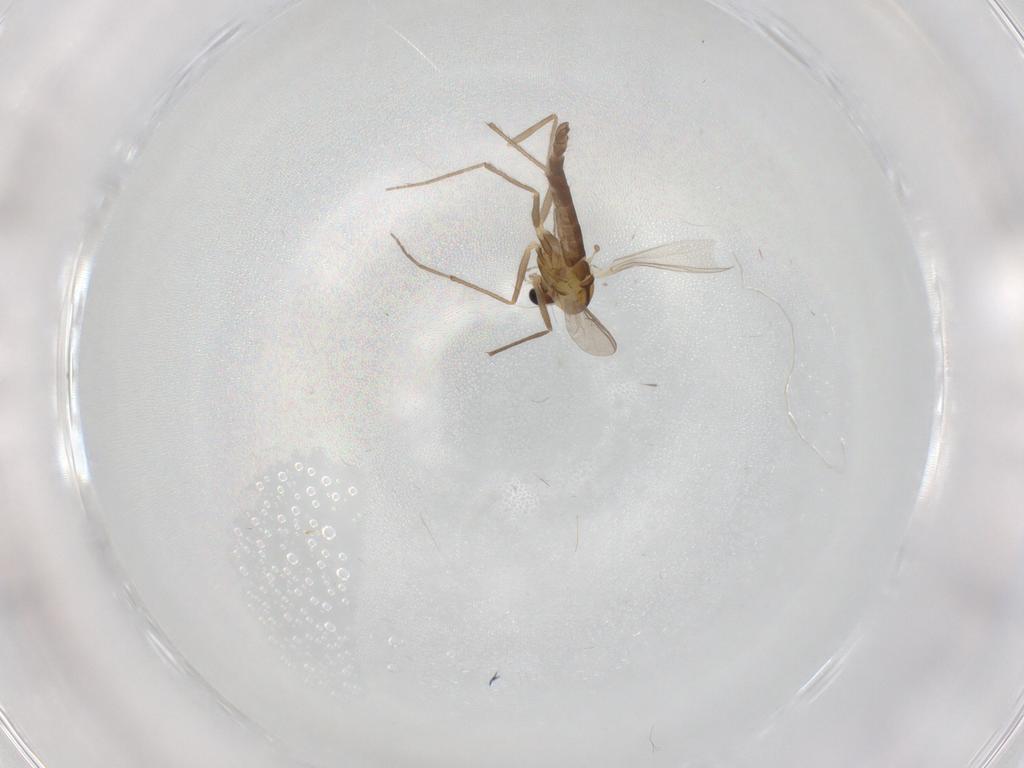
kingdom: Animalia
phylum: Arthropoda
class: Insecta
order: Diptera
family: Chironomidae
